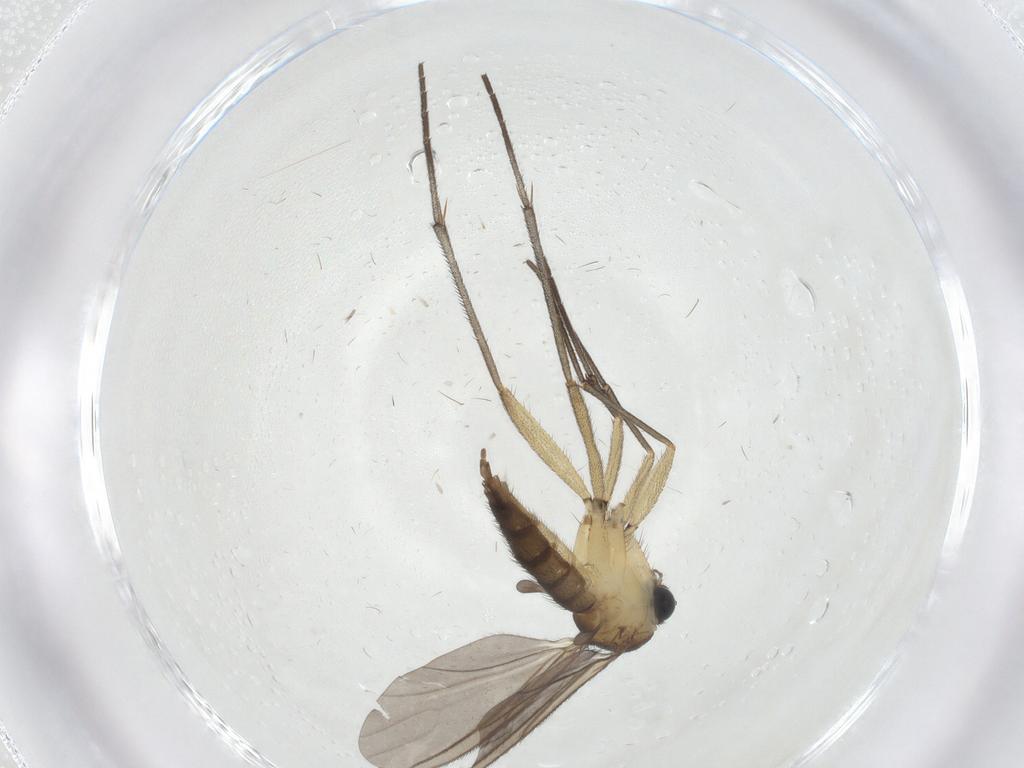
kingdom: Animalia
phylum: Arthropoda
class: Insecta
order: Diptera
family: Sciaridae
